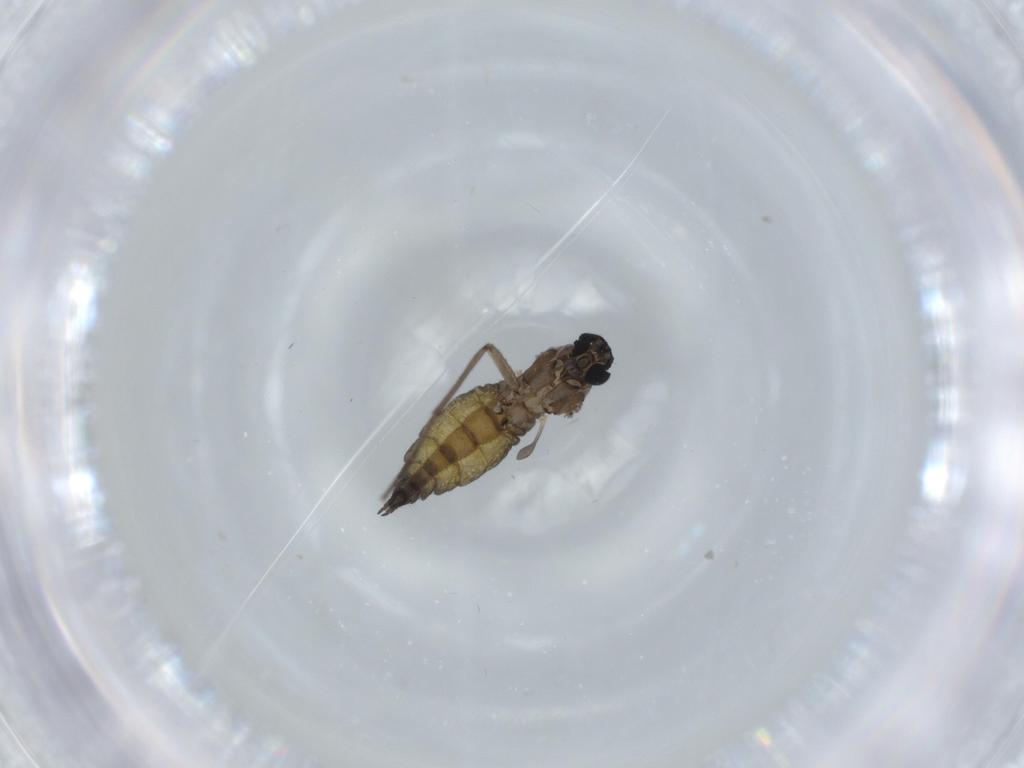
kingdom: Animalia
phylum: Arthropoda
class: Insecta
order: Diptera
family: Sciaridae
